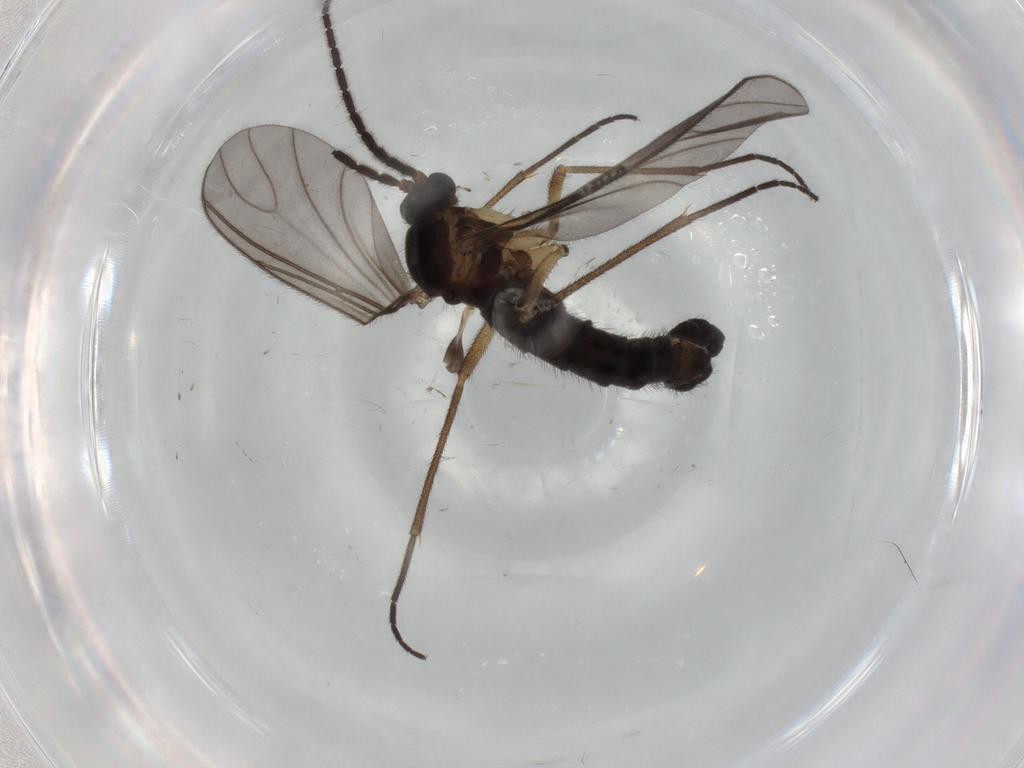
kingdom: Animalia
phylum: Arthropoda
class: Insecta
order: Diptera
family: Sciaridae
